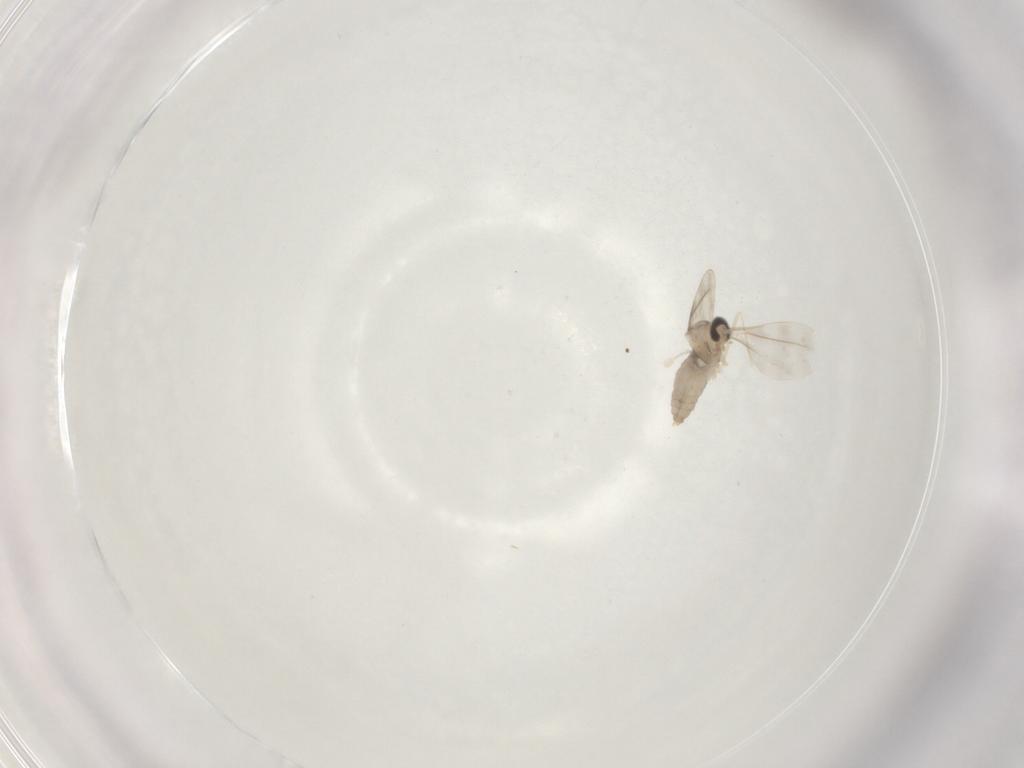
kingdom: Animalia
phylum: Arthropoda
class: Insecta
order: Diptera
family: Cecidomyiidae
